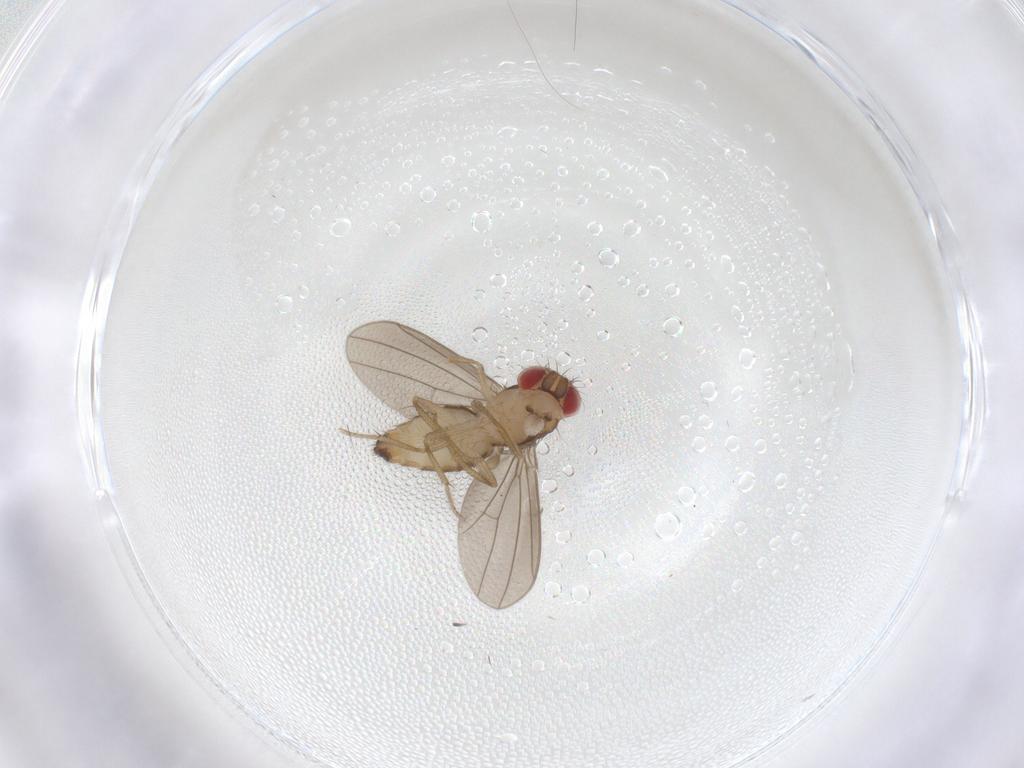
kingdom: Animalia
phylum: Arthropoda
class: Insecta
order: Diptera
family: Drosophilidae
